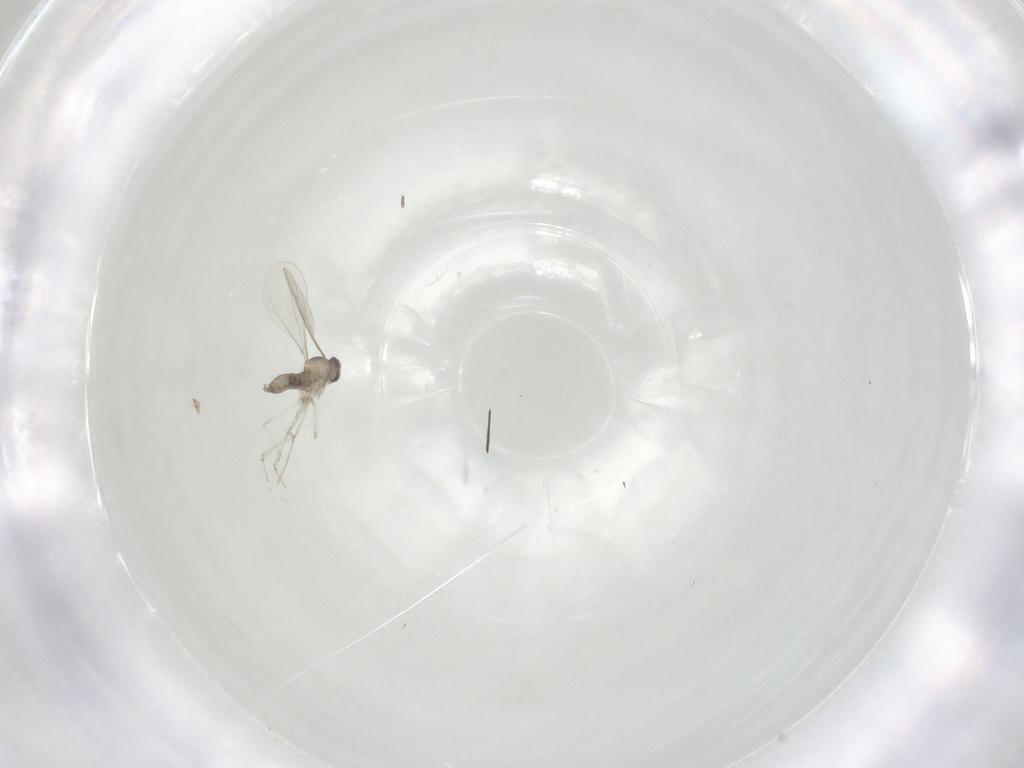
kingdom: Animalia
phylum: Arthropoda
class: Insecta
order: Diptera
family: Cecidomyiidae
